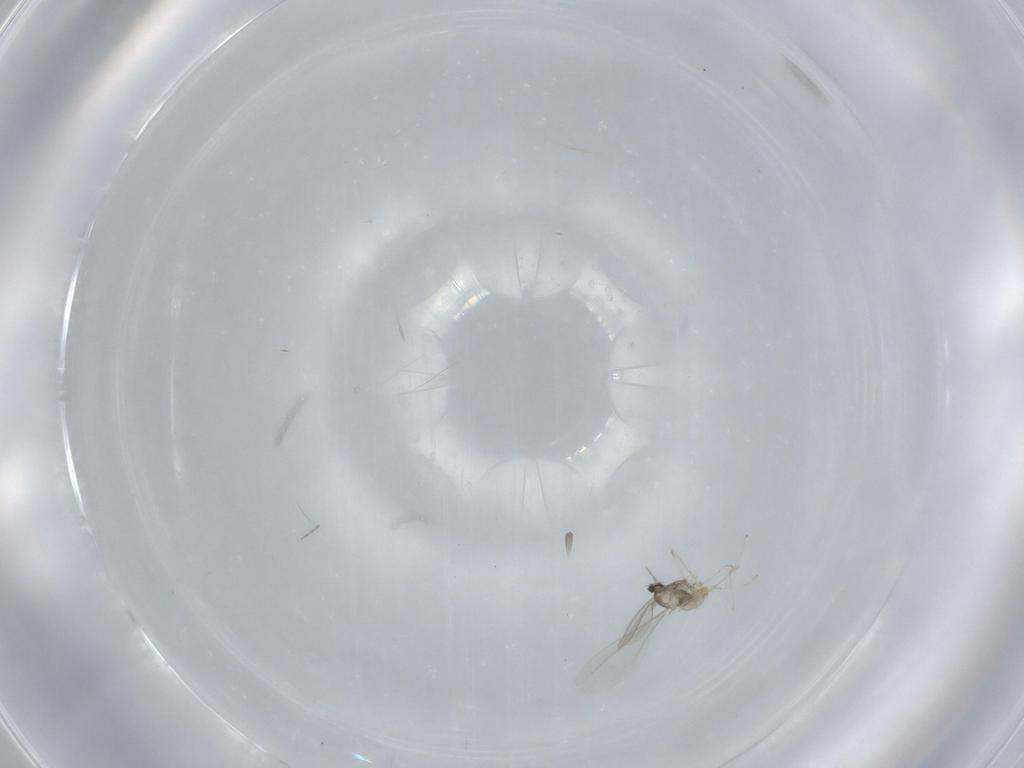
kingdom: Animalia
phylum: Arthropoda
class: Insecta
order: Diptera
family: Cecidomyiidae
